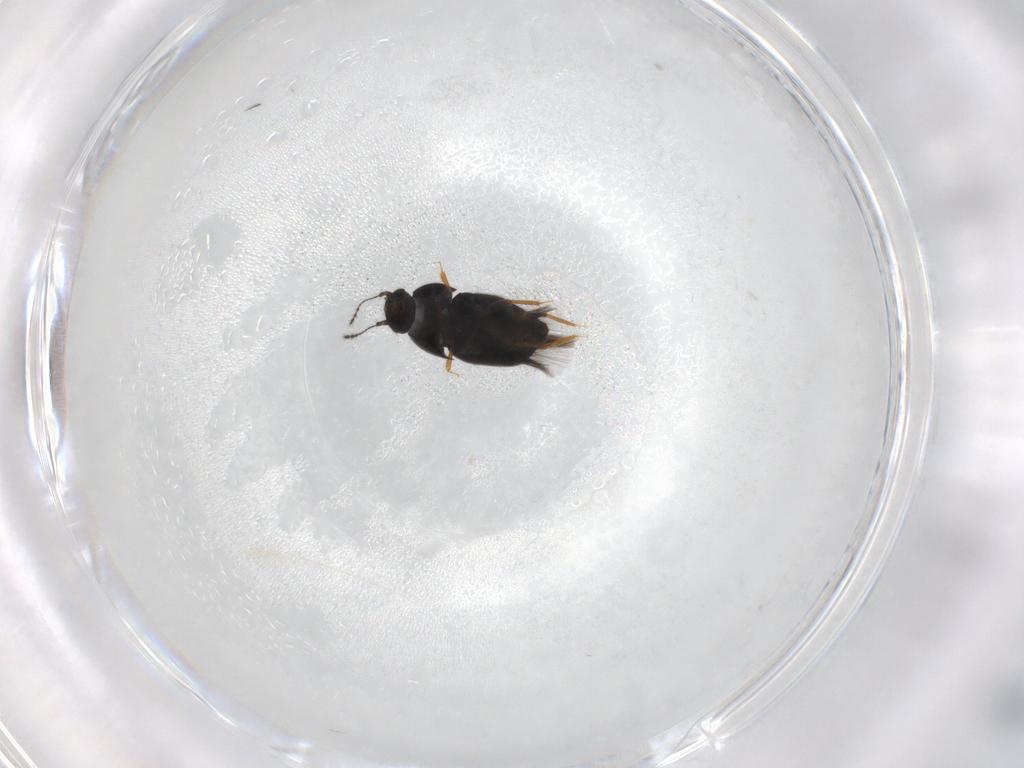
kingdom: Animalia
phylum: Arthropoda
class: Insecta
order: Coleoptera
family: Ptiliidae
